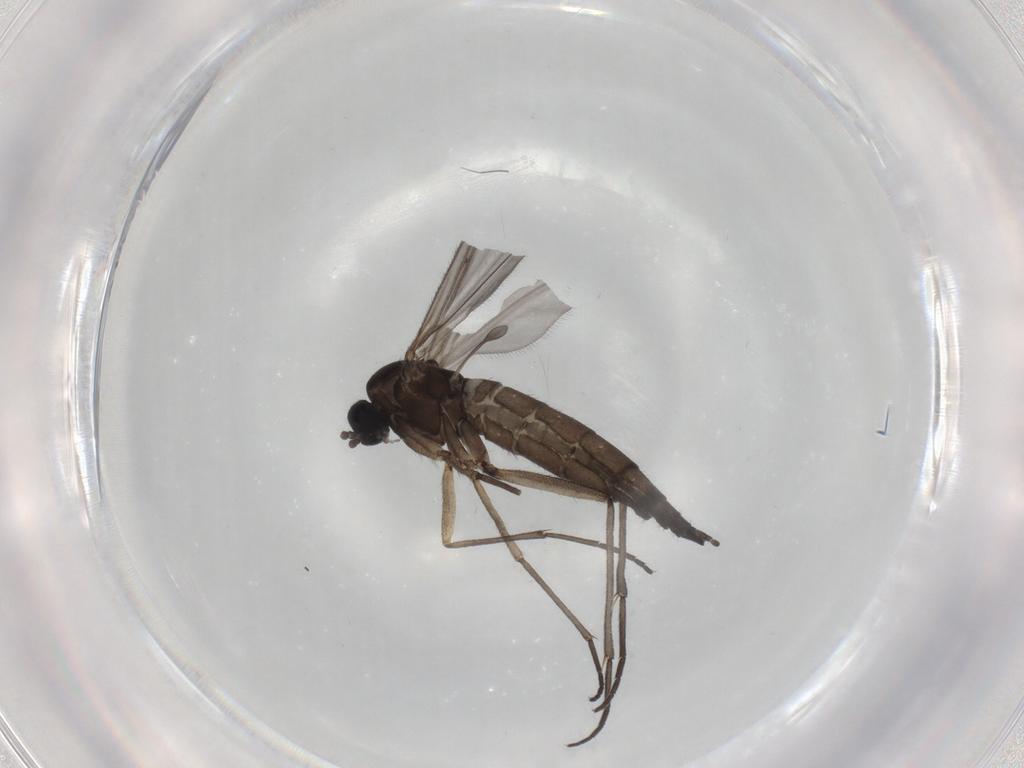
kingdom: Animalia
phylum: Arthropoda
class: Insecta
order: Diptera
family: Sciaridae
